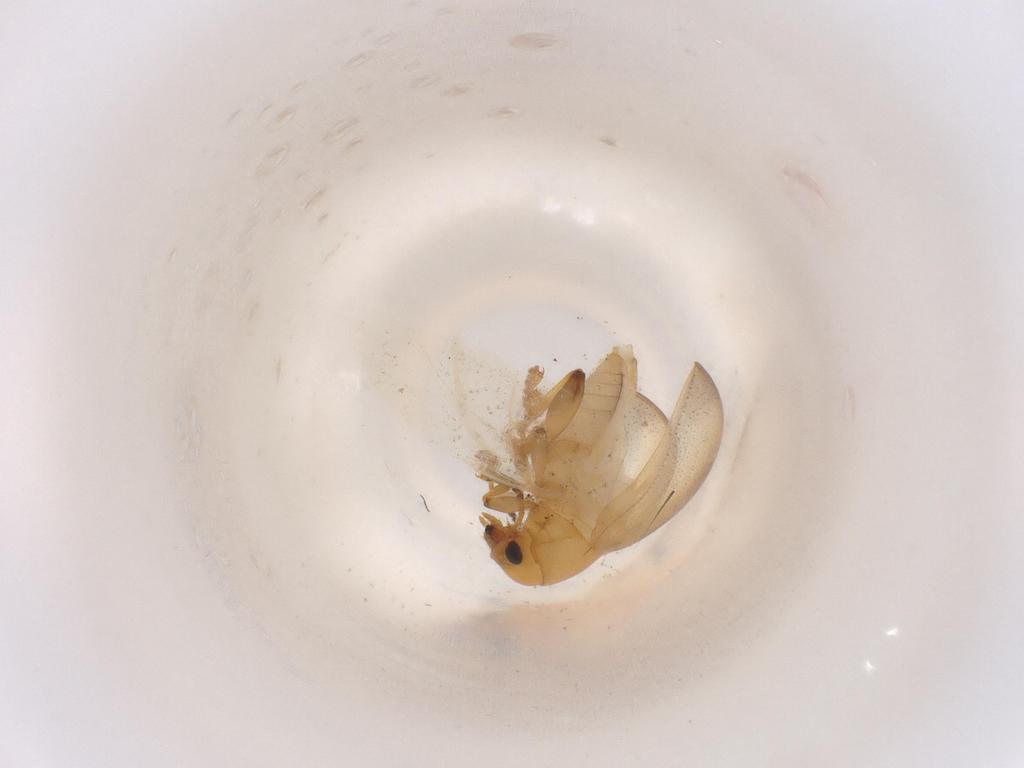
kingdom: Animalia
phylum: Arthropoda
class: Insecta
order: Coleoptera
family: Chrysomelidae
